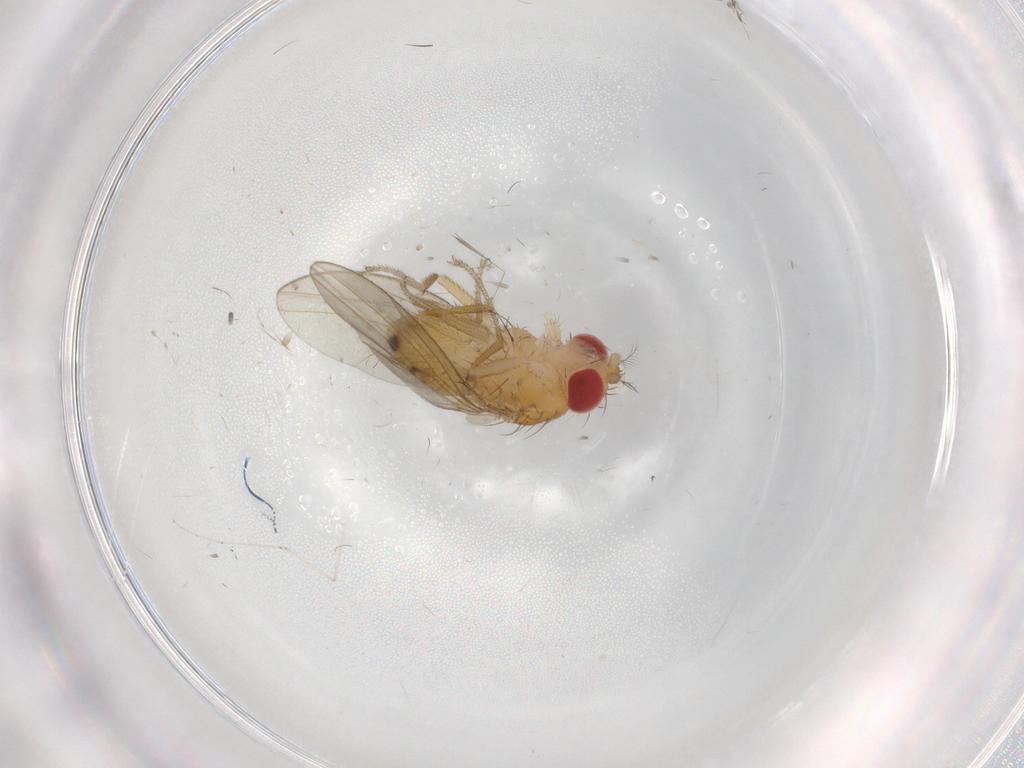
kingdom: Animalia
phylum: Arthropoda
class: Insecta
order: Diptera
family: Drosophilidae
